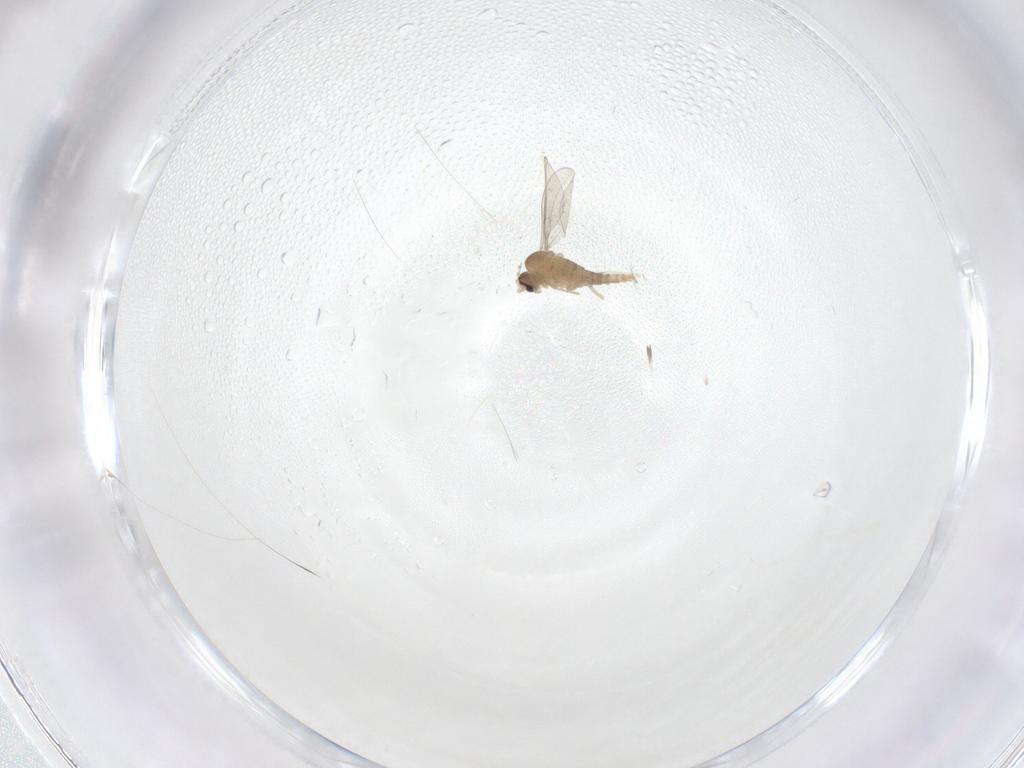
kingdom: Animalia
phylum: Arthropoda
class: Insecta
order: Diptera
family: Cecidomyiidae
